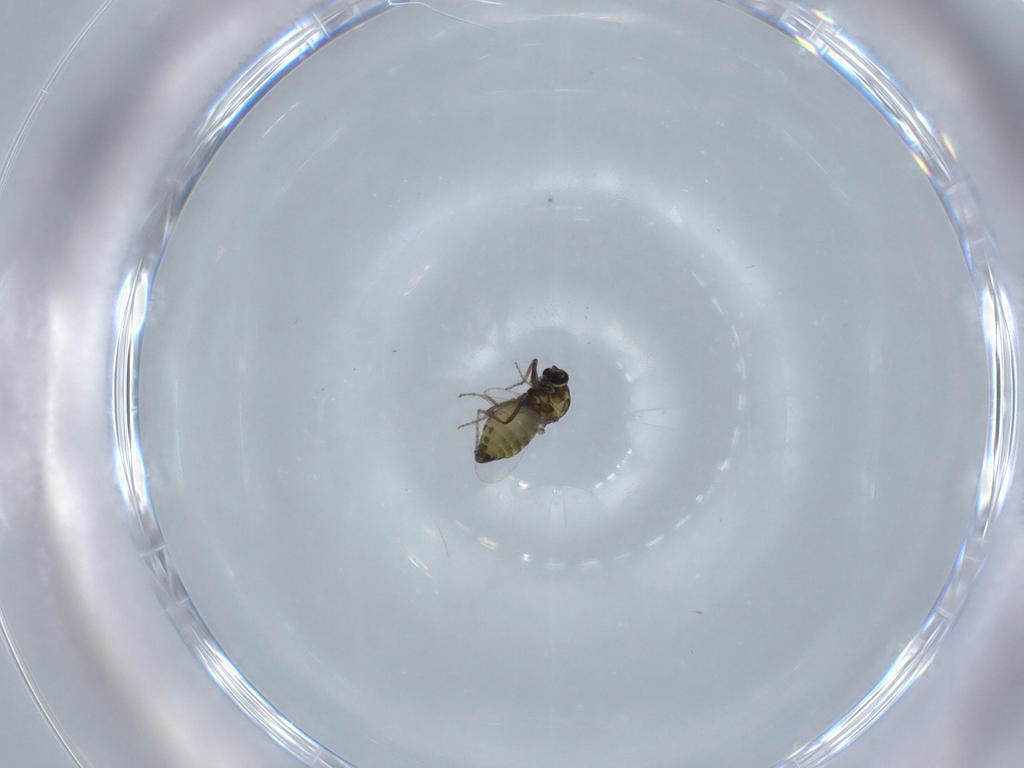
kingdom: Animalia
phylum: Arthropoda
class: Insecta
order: Diptera
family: Ceratopogonidae
